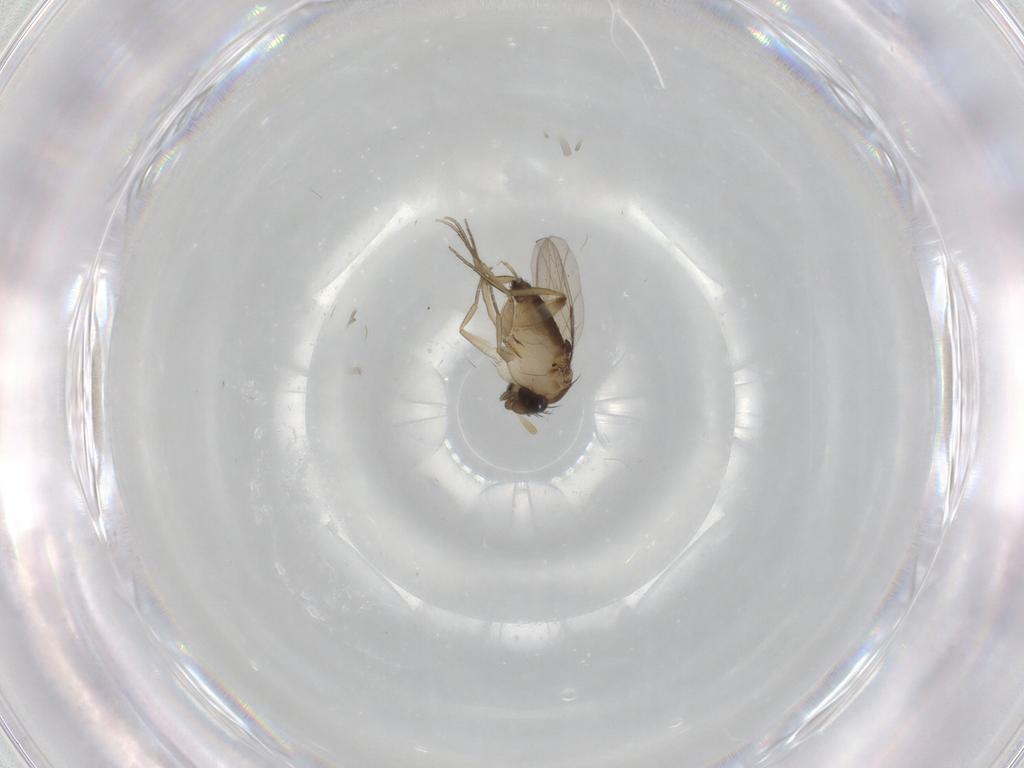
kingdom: Animalia
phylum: Arthropoda
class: Insecta
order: Diptera
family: Phoridae
